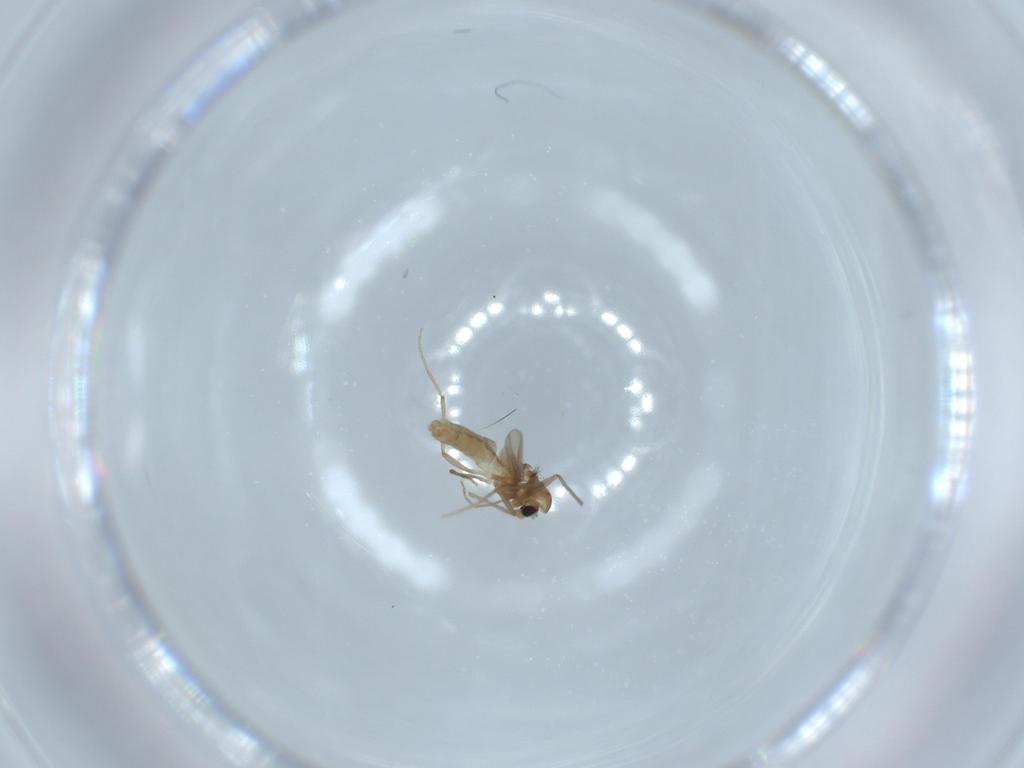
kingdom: Animalia
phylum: Arthropoda
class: Insecta
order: Diptera
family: Chironomidae
